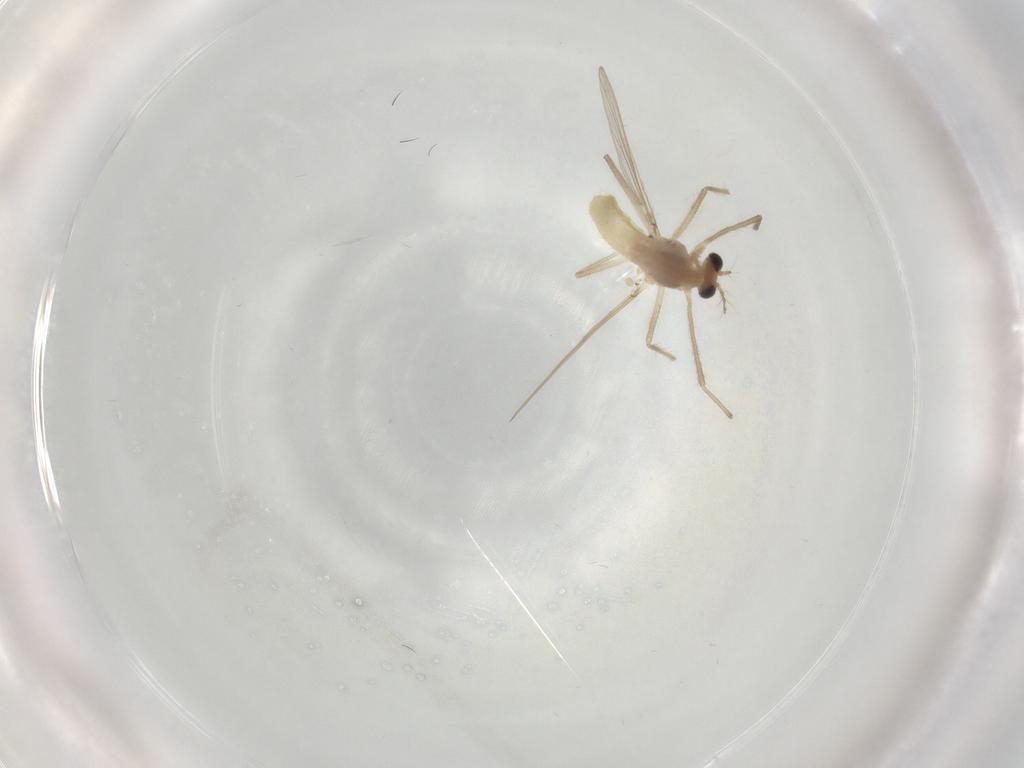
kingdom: Animalia
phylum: Arthropoda
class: Insecta
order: Diptera
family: Chironomidae
